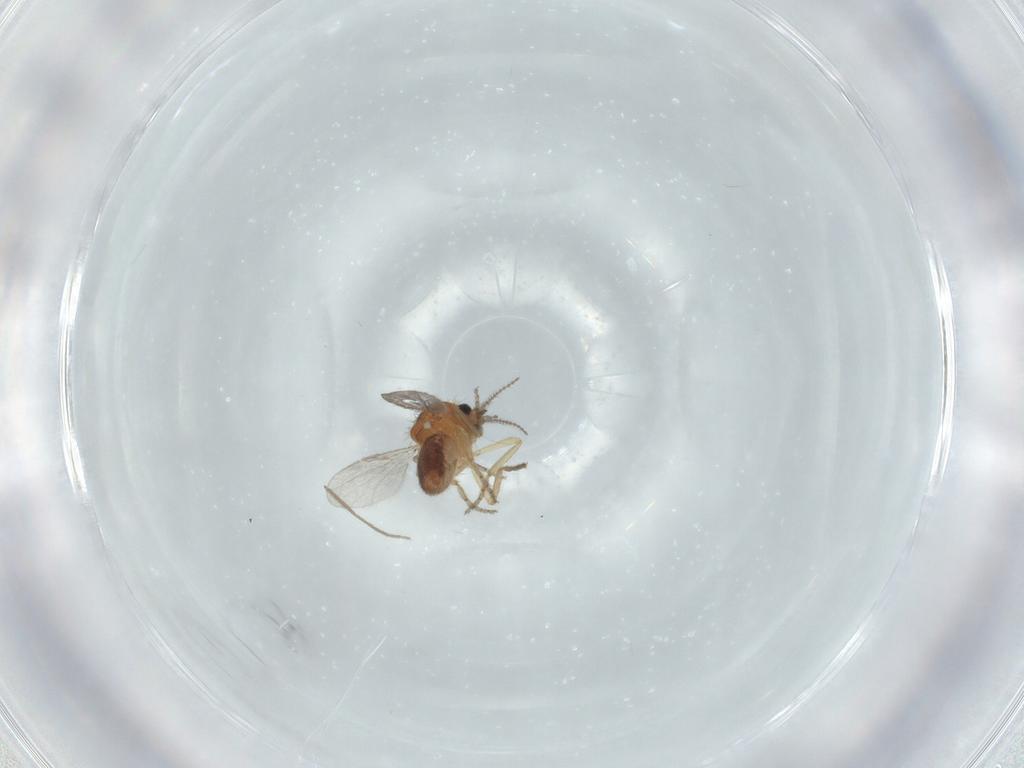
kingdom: Animalia
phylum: Arthropoda
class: Insecta
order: Diptera
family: Ceratopogonidae
